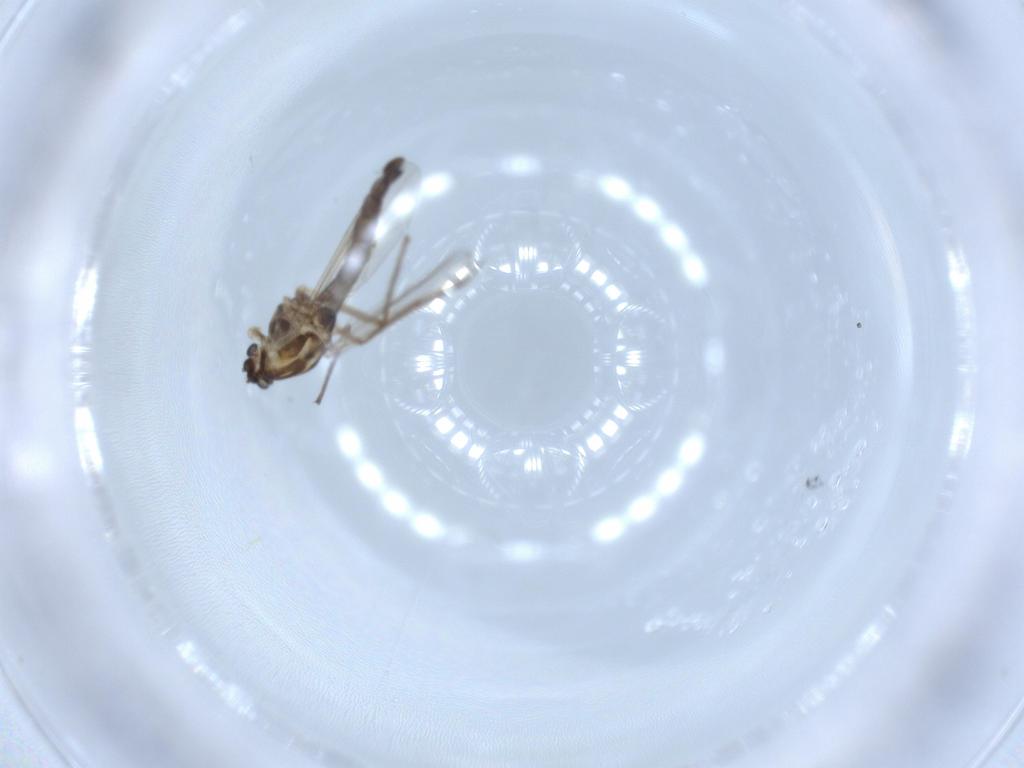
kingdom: Animalia
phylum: Arthropoda
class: Insecta
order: Diptera
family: Chironomidae
